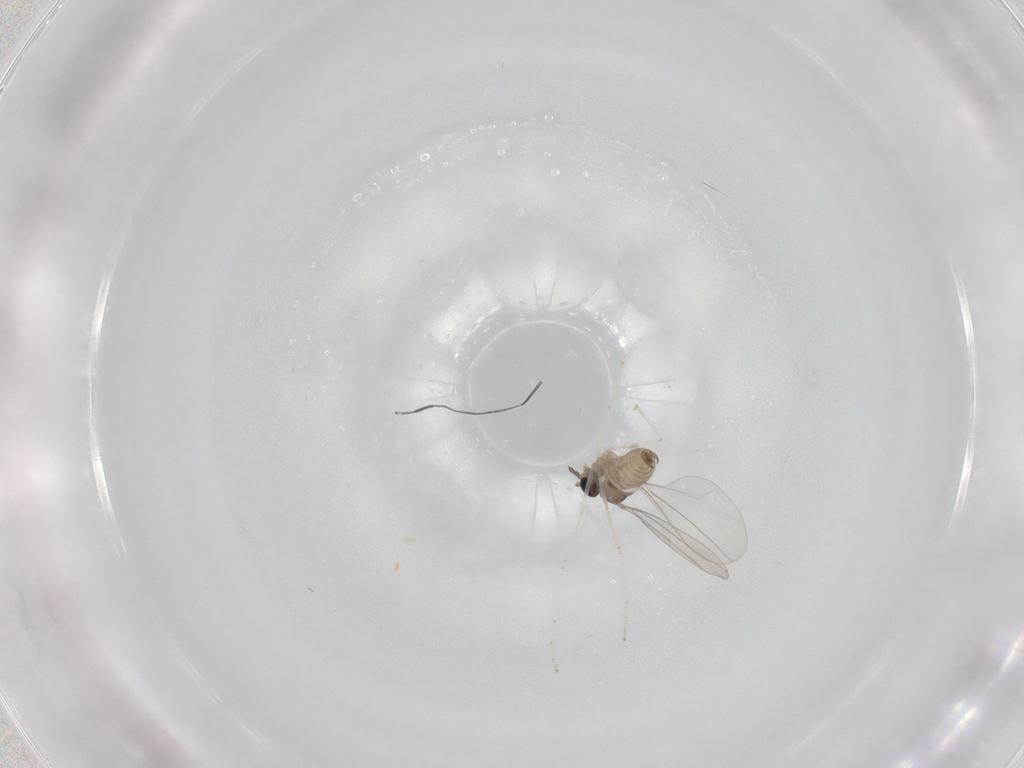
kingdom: Animalia
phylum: Arthropoda
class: Insecta
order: Diptera
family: Cecidomyiidae
